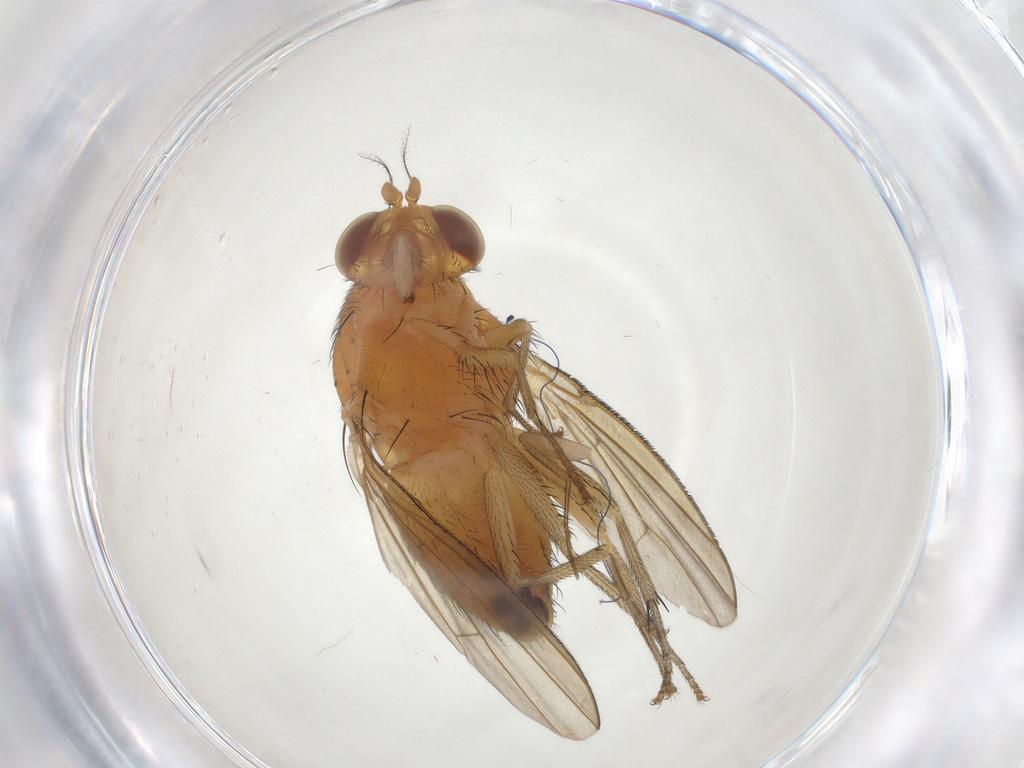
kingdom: Animalia
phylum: Arthropoda
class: Insecta
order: Diptera
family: Lauxaniidae
